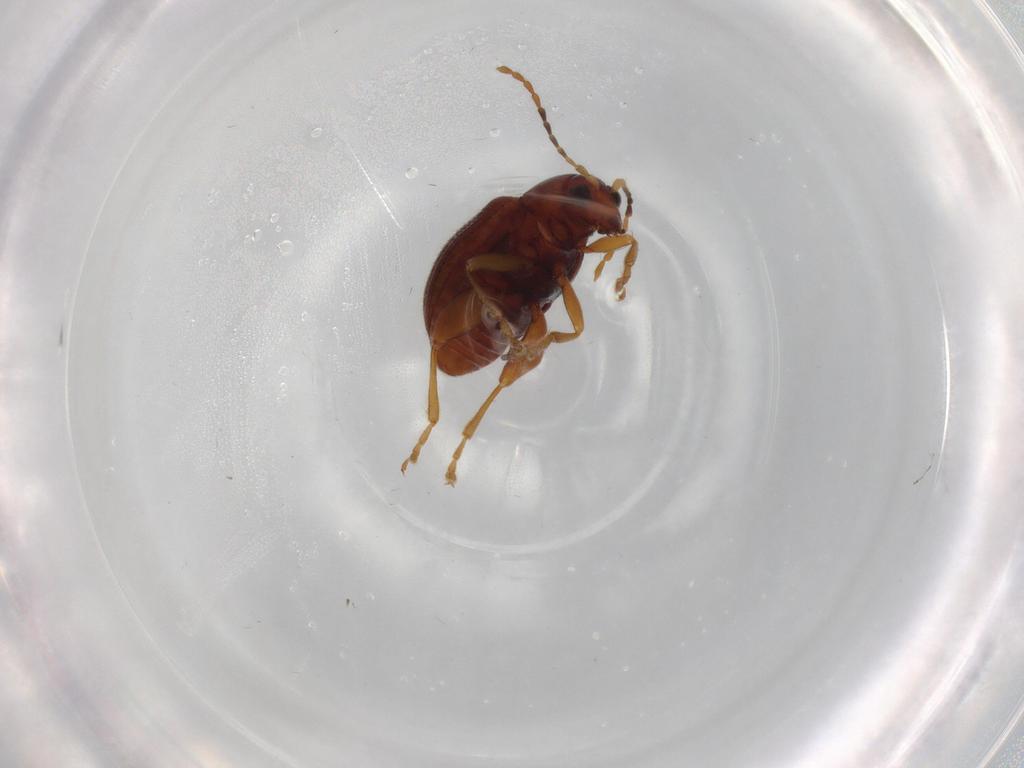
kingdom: Animalia
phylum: Arthropoda
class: Insecta
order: Coleoptera
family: Chrysomelidae
